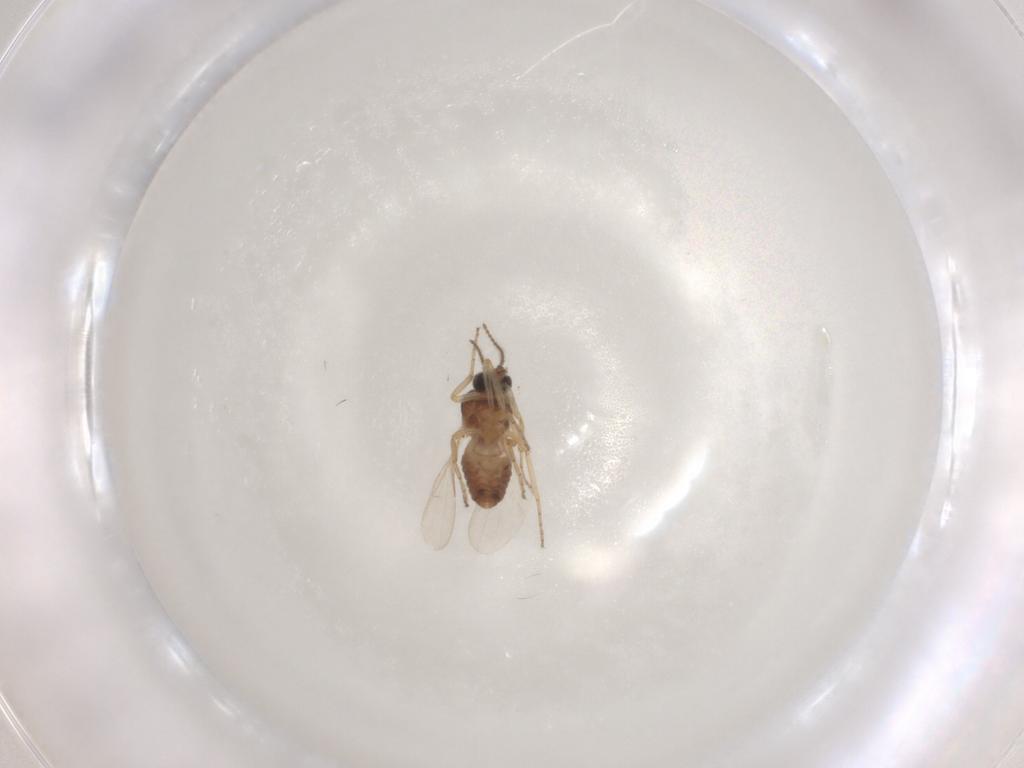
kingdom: Animalia
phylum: Arthropoda
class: Insecta
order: Diptera
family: Ceratopogonidae
